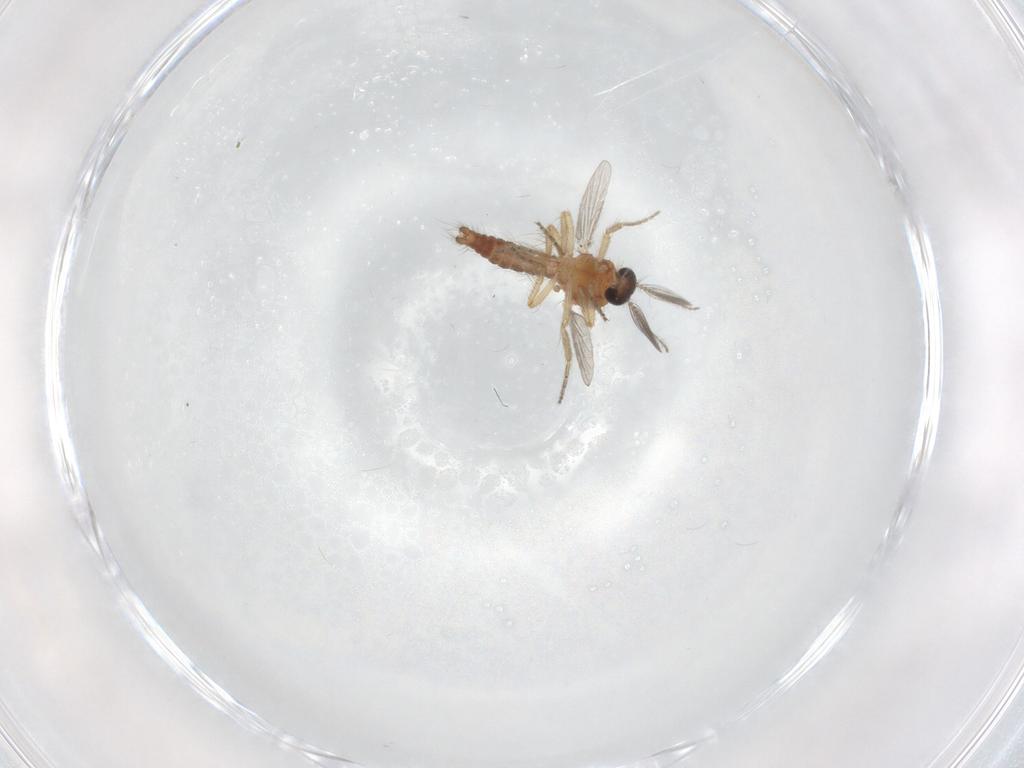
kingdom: Animalia
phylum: Arthropoda
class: Insecta
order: Diptera
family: Ceratopogonidae
